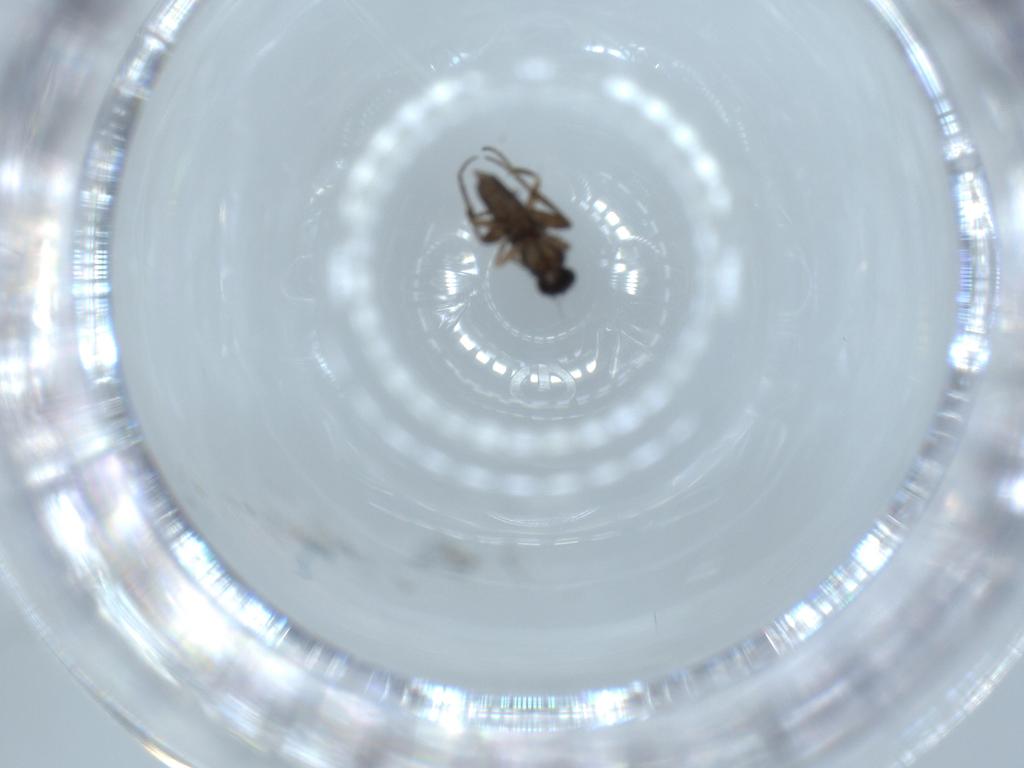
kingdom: Animalia
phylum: Arthropoda
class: Insecta
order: Diptera
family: Phoridae
